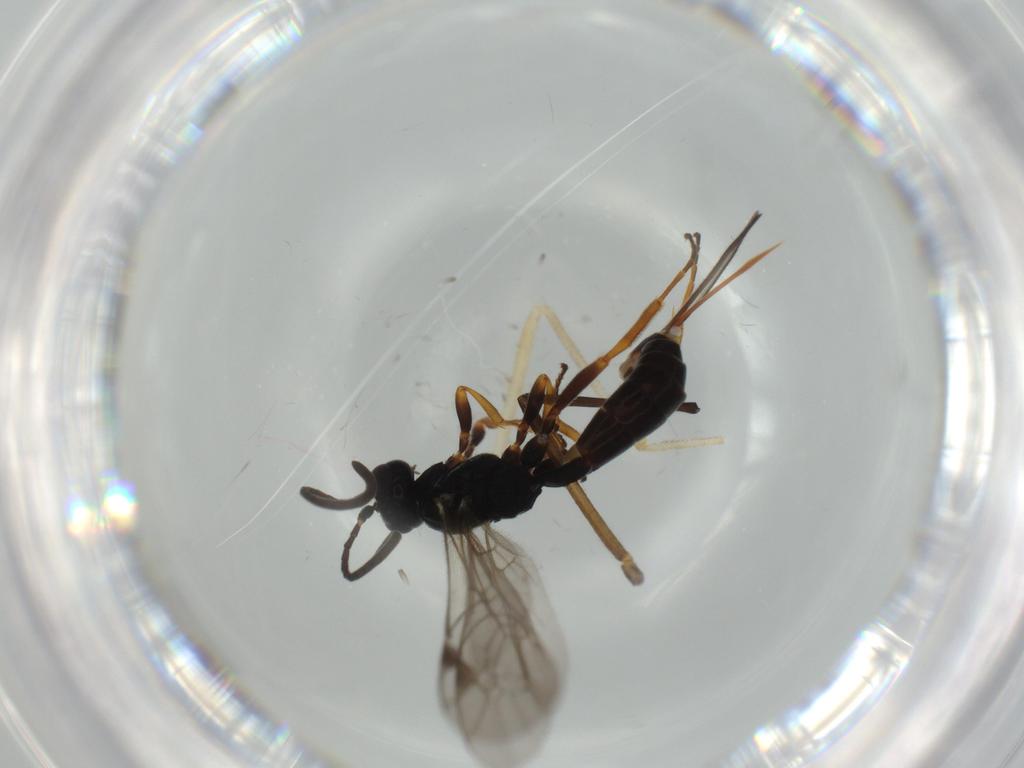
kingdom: Animalia
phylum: Arthropoda
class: Insecta
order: Hymenoptera
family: Ichneumonidae
